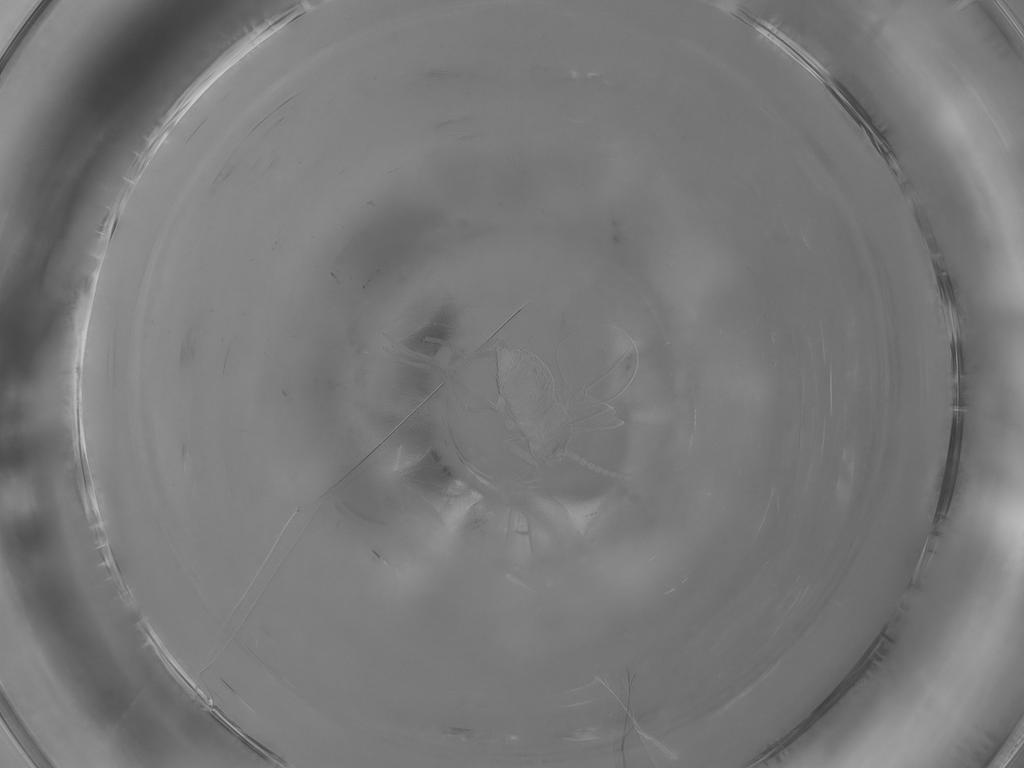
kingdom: Animalia
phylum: Arthropoda
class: Insecta
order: Diptera
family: Cecidomyiidae
